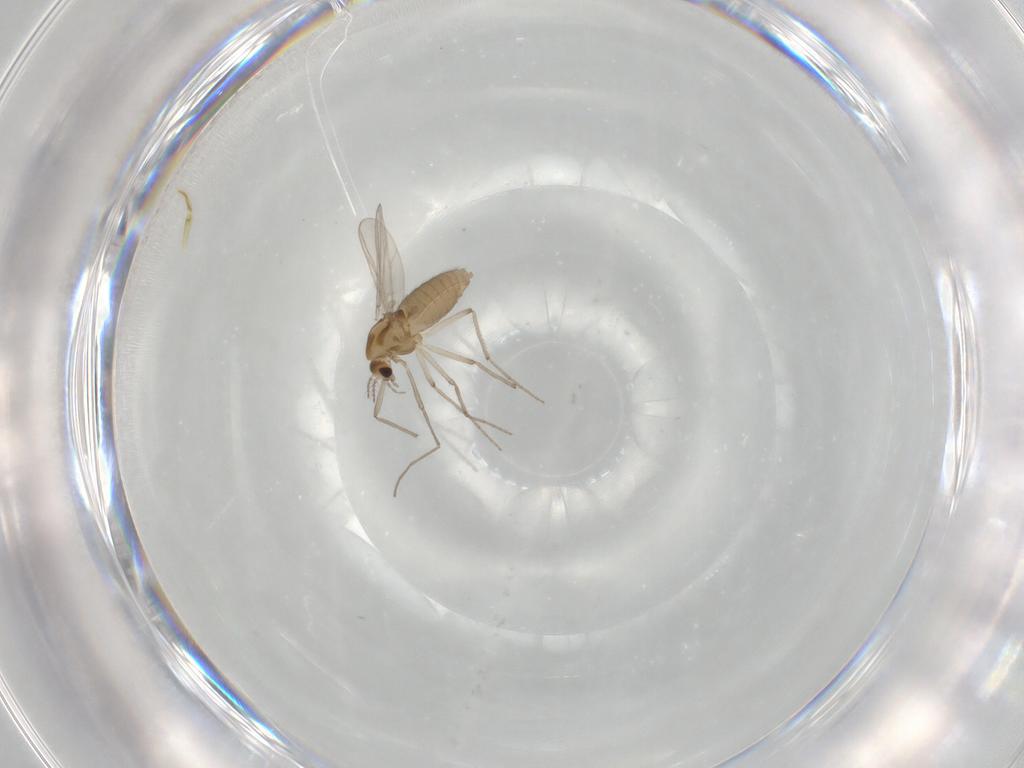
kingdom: Animalia
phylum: Arthropoda
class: Insecta
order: Diptera
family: Chironomidae
